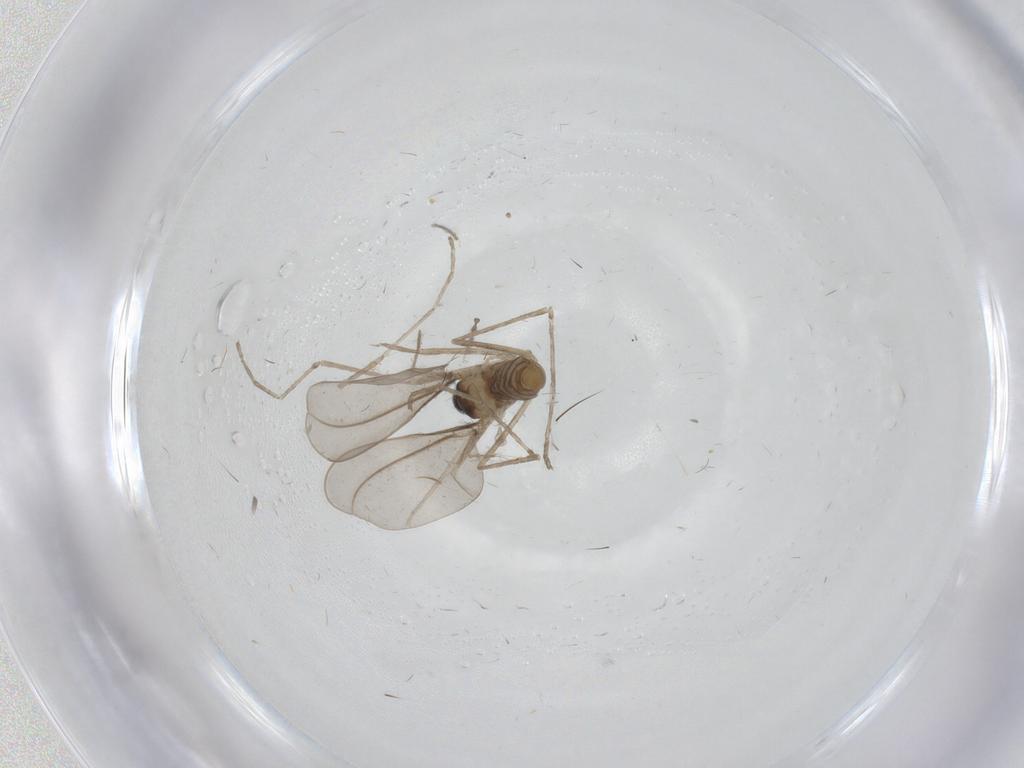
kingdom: Animalia
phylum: Arthropoda
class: Insecta
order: Diptera
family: Cecidomyiidae
